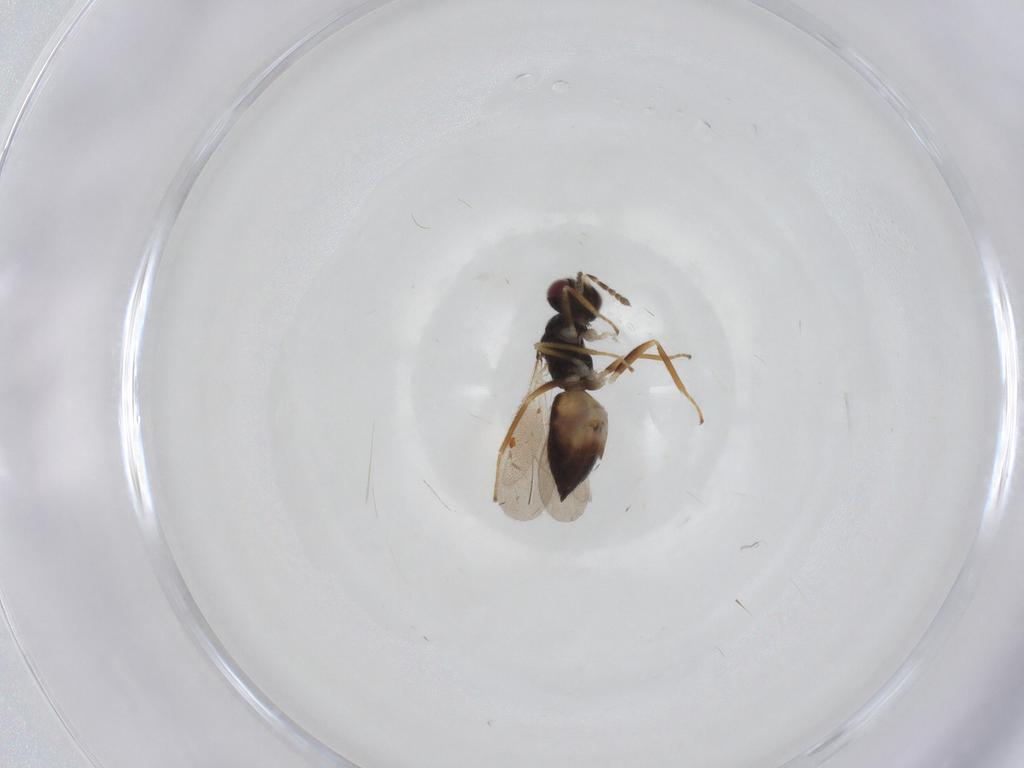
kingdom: Animalia
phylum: Arthropoda
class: Insecta
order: Hymenoptera
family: Eulophidae
